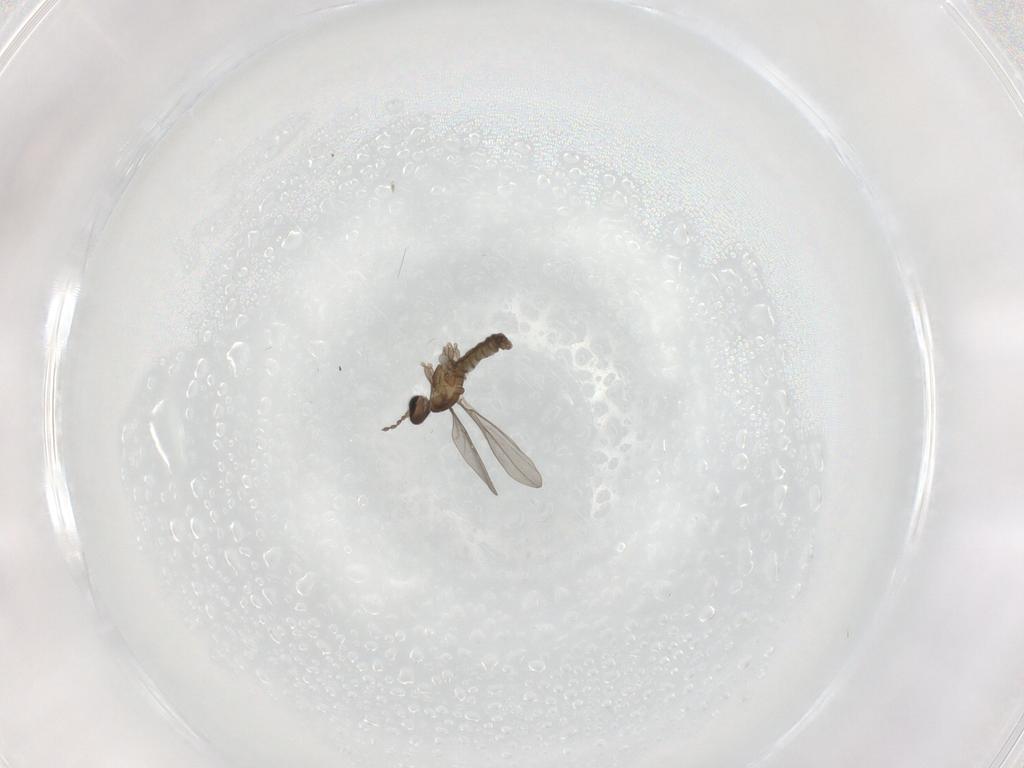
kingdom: Animalia
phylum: Arthropoda
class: Insecta
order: Diptera
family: Cecidomyiidae
